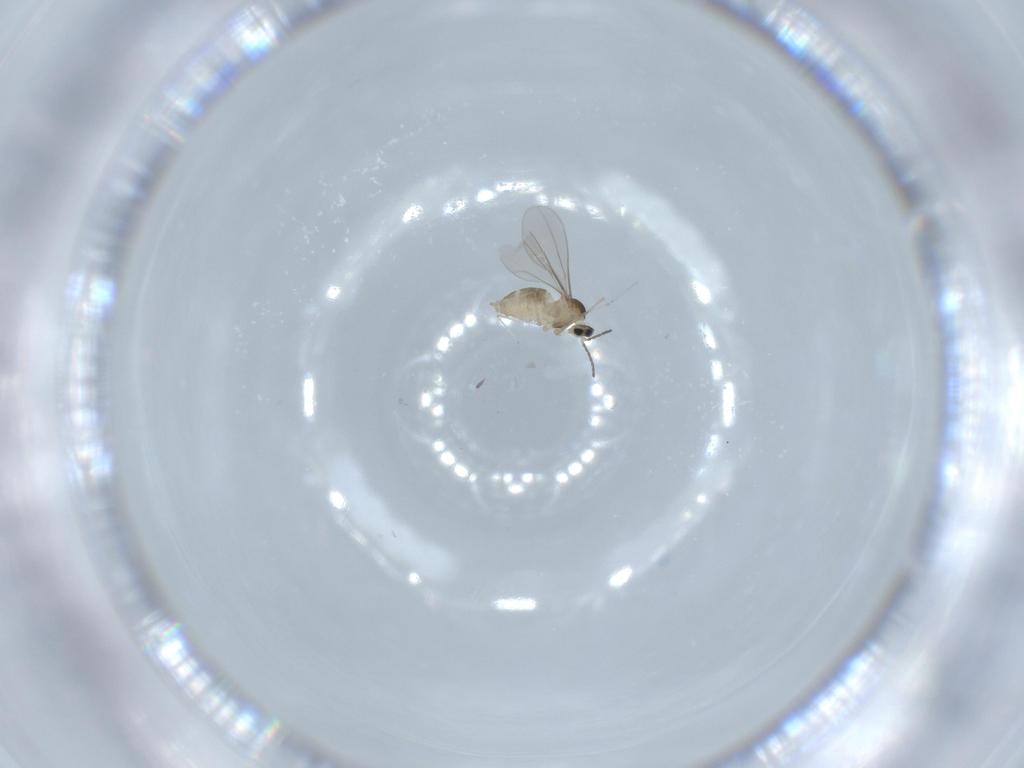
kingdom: Animalia
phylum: Arthropoda
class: Insecta
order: Diptera
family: Cecidomyiidae
